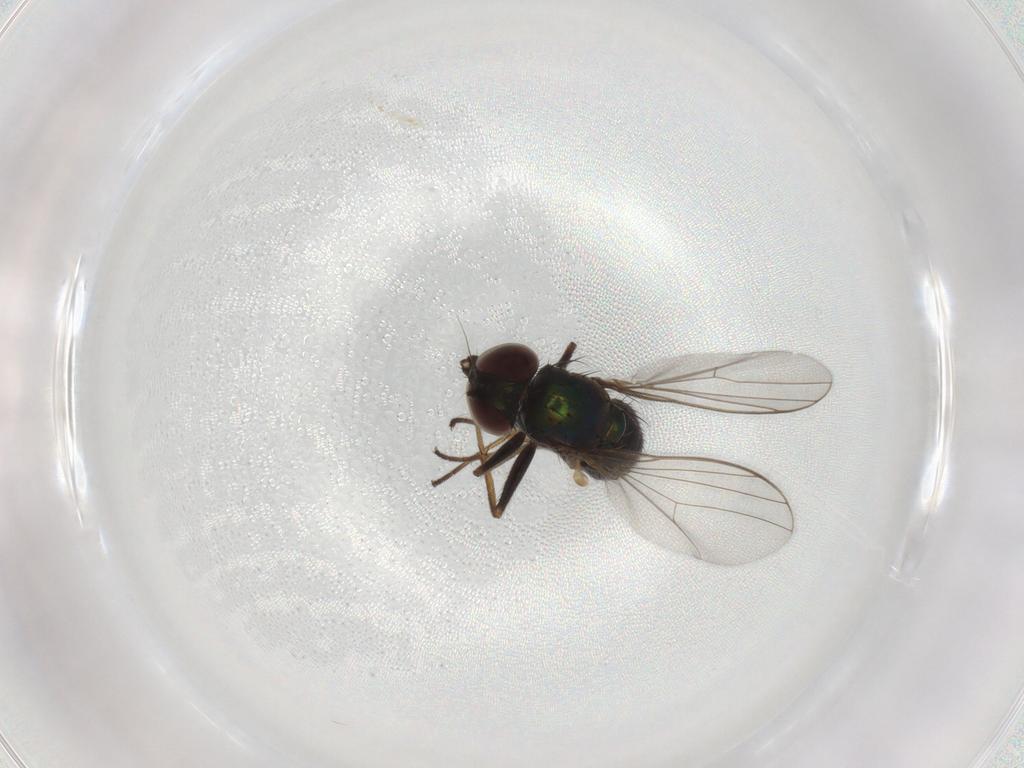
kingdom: Animalia
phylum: Arthropoda
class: Insecta
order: Diptera
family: Dolichopodidae
